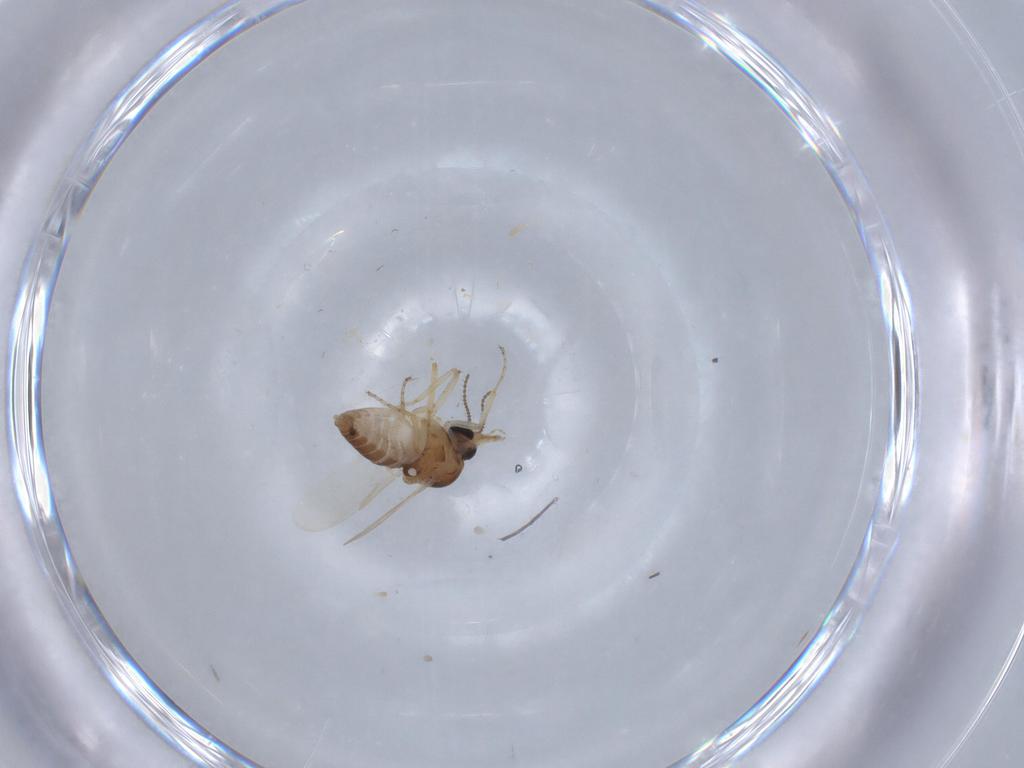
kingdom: Animalia
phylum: Arthropoda
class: Insecta
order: Diptera
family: Ceratopogonidae
